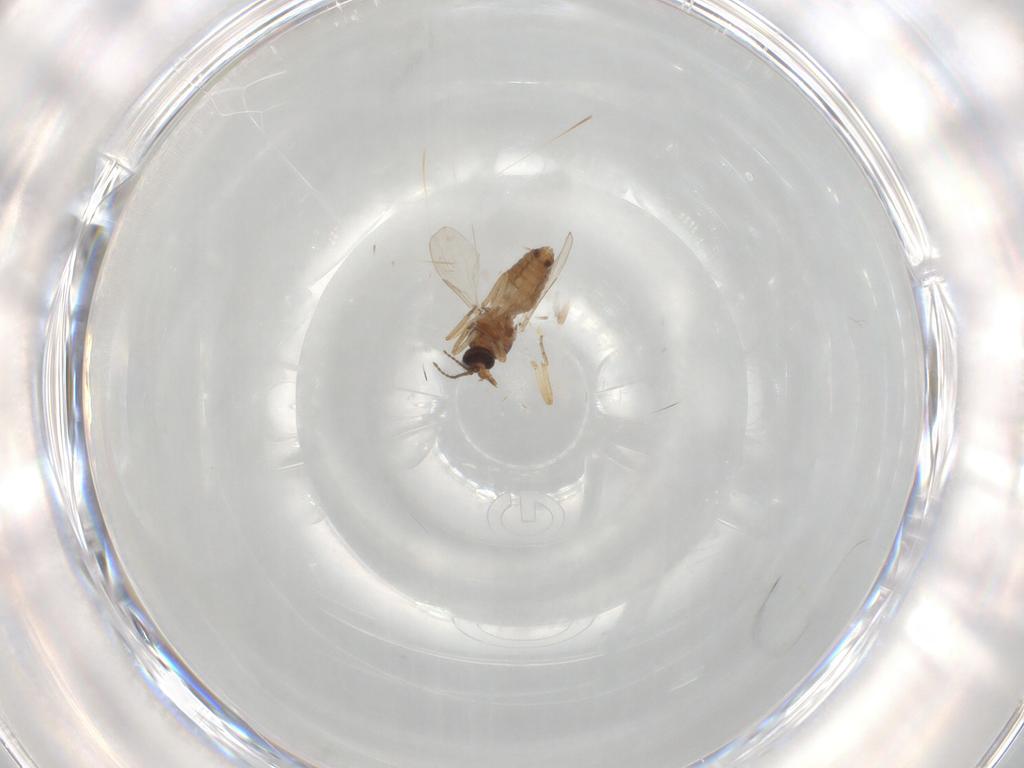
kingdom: Animalia
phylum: Arthropoda
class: Insecta
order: Diptera
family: Ceratopogonidae
